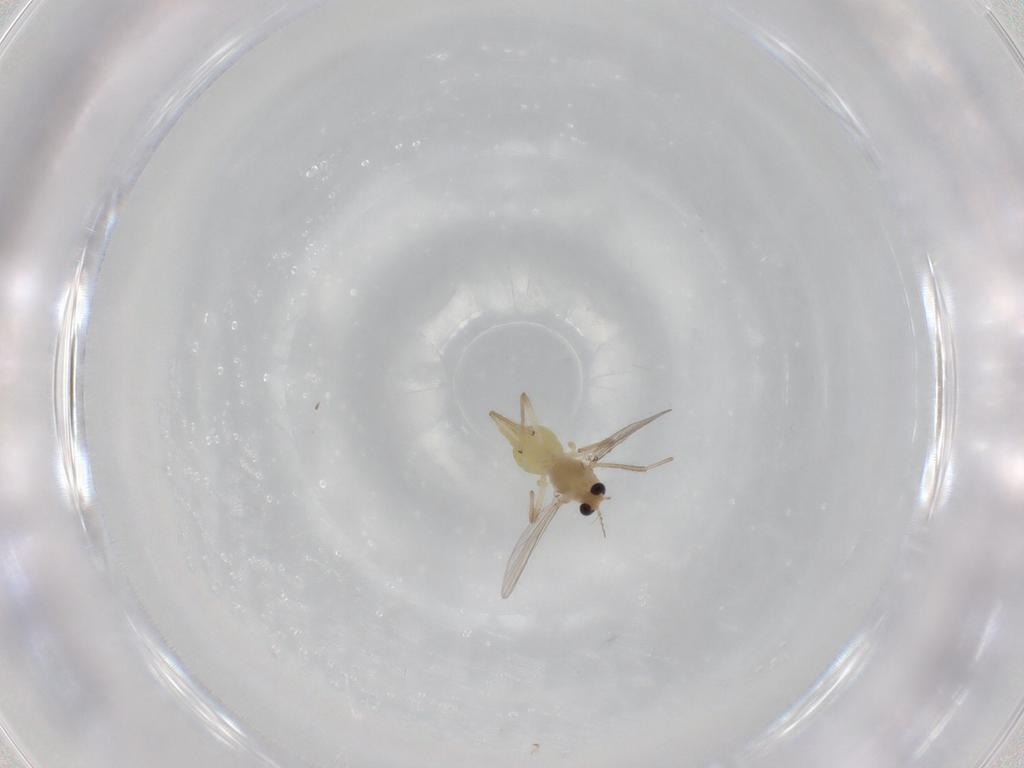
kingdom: Animalia
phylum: Arthropoda
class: Insecta
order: Diptera
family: Chironomidae
